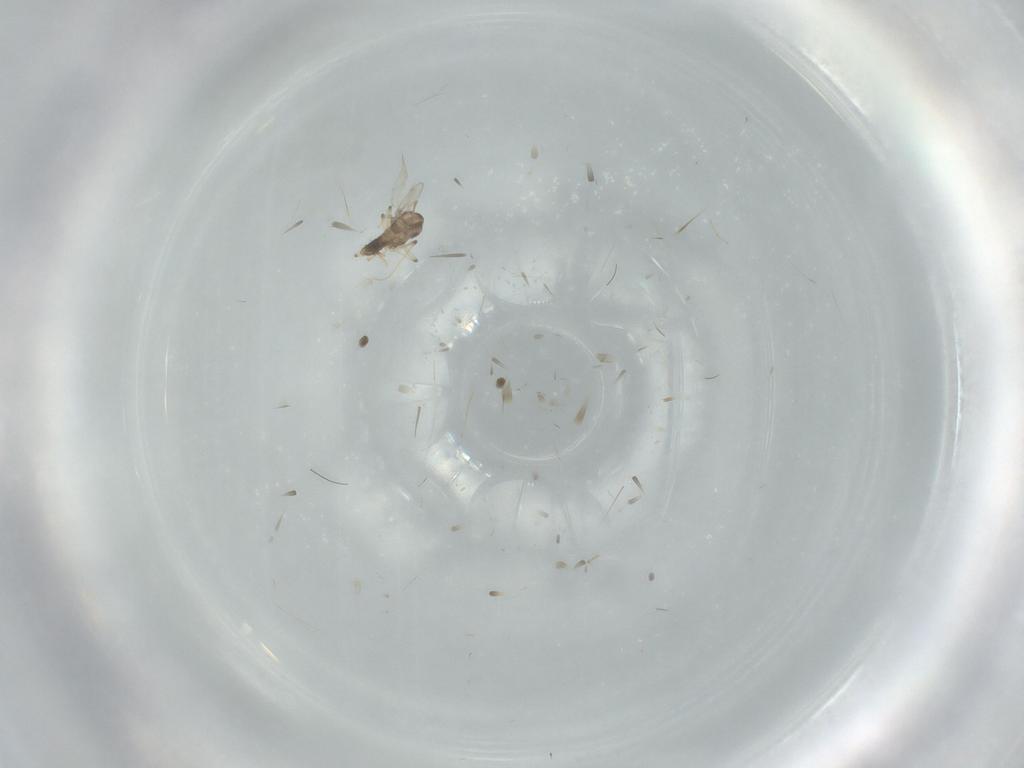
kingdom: Animalia
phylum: Arthropoda
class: Insecta
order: Diptera
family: Chironomidae
